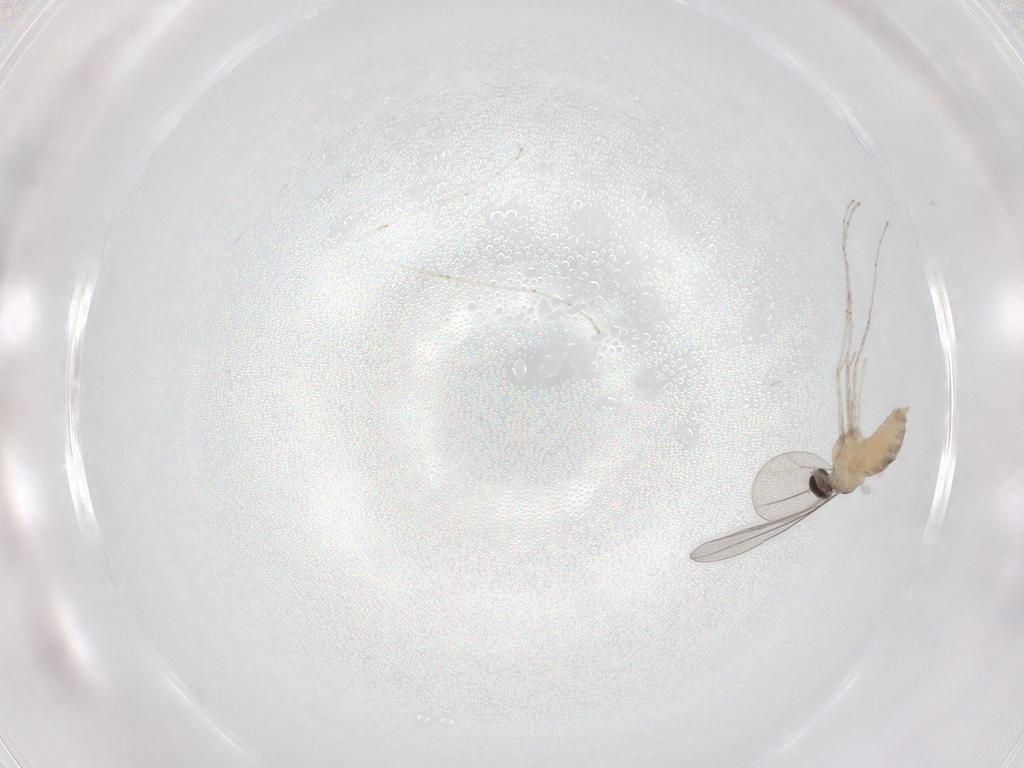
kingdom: Animalia
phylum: Arthropoda
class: Insecta
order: Diptera
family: Cecidomyiidae
